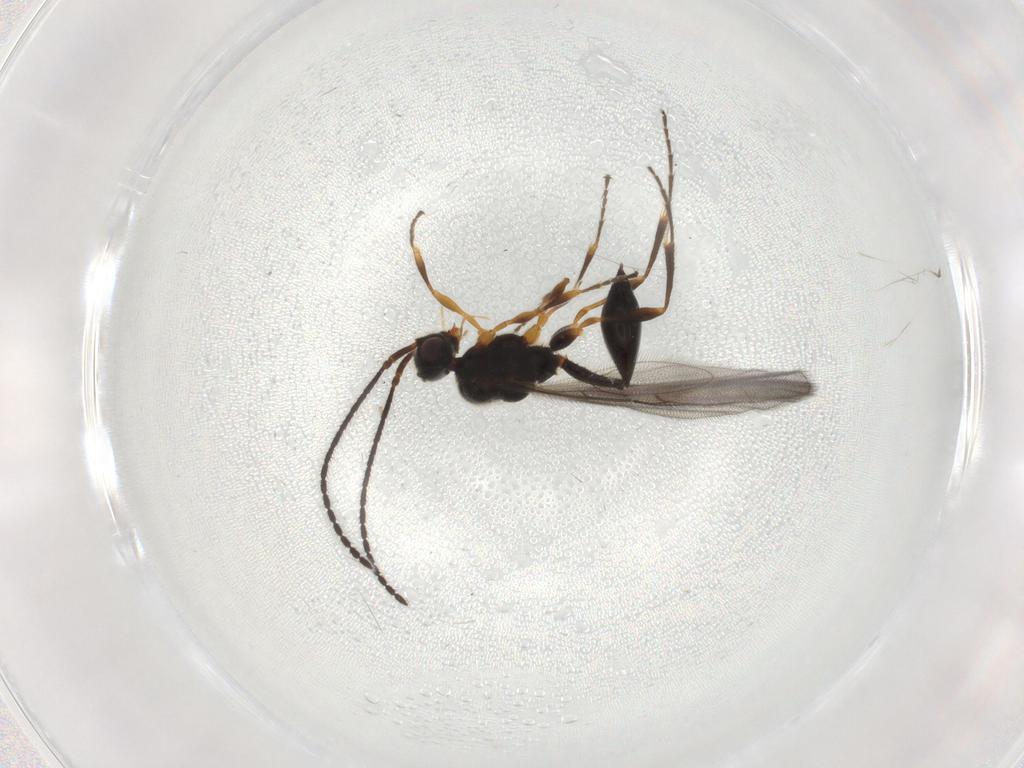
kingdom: Animalia
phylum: Arthropoda
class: Insecta
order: Hymenoptera
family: Diapriidae
